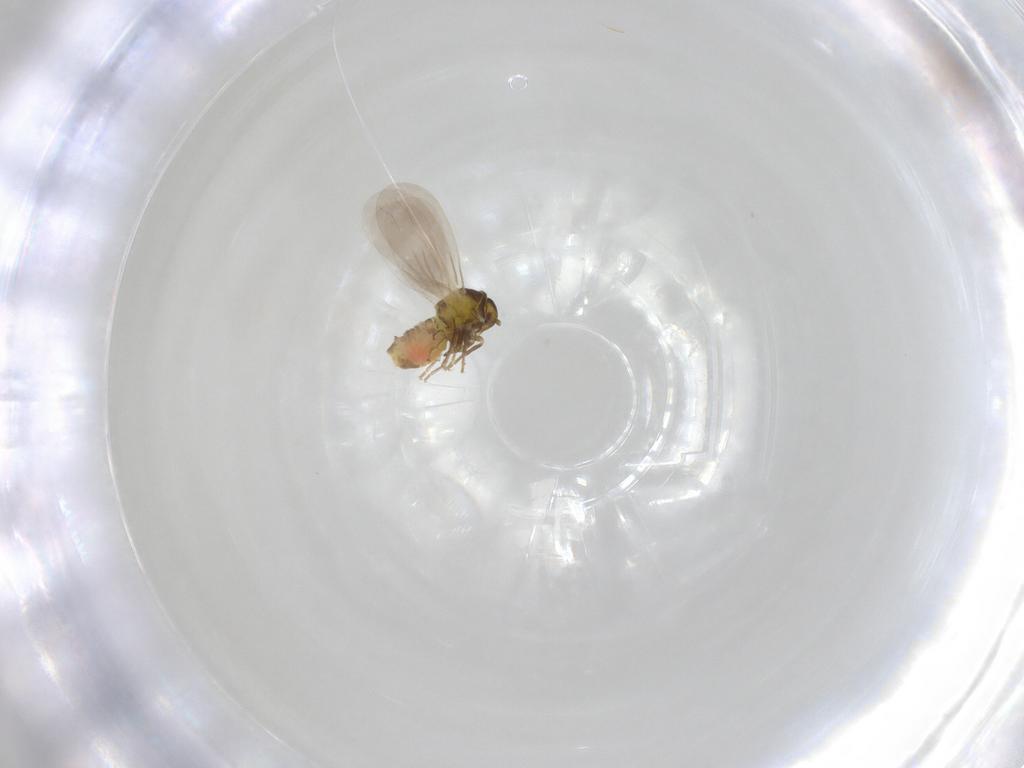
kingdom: Animalia
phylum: Arthropoda
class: Insecta
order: Hemiptera
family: Aleyrodidae
